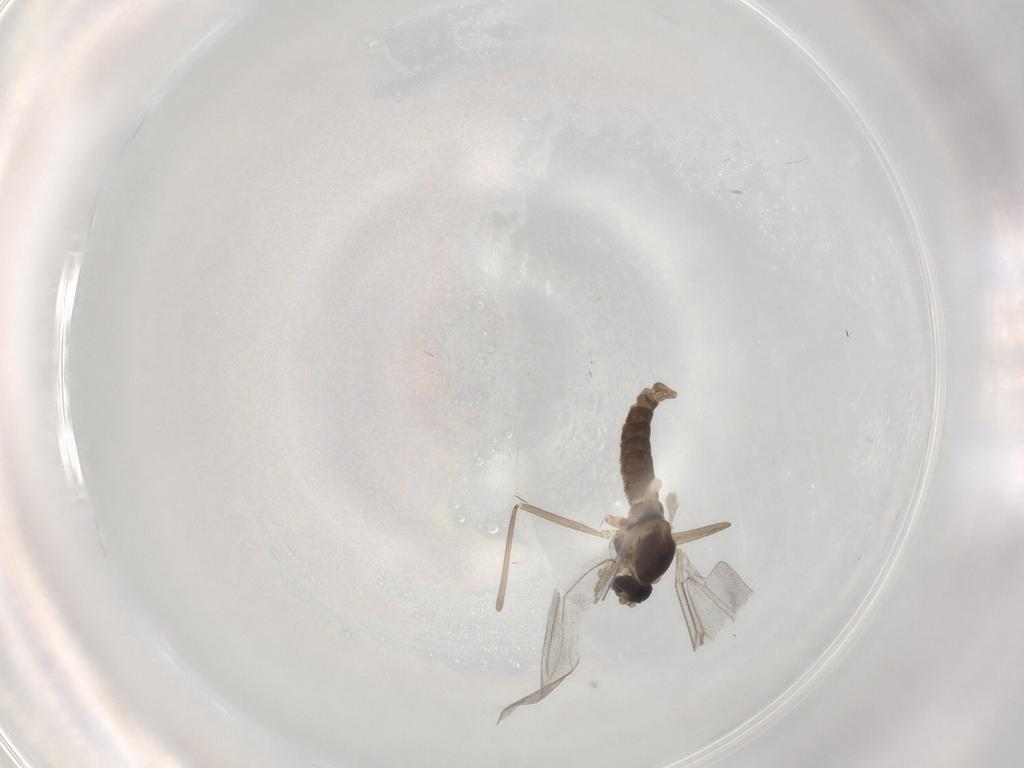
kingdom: Animalia
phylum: Arthropoda
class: Insecta
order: Diptera
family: Cecidomyiidae
